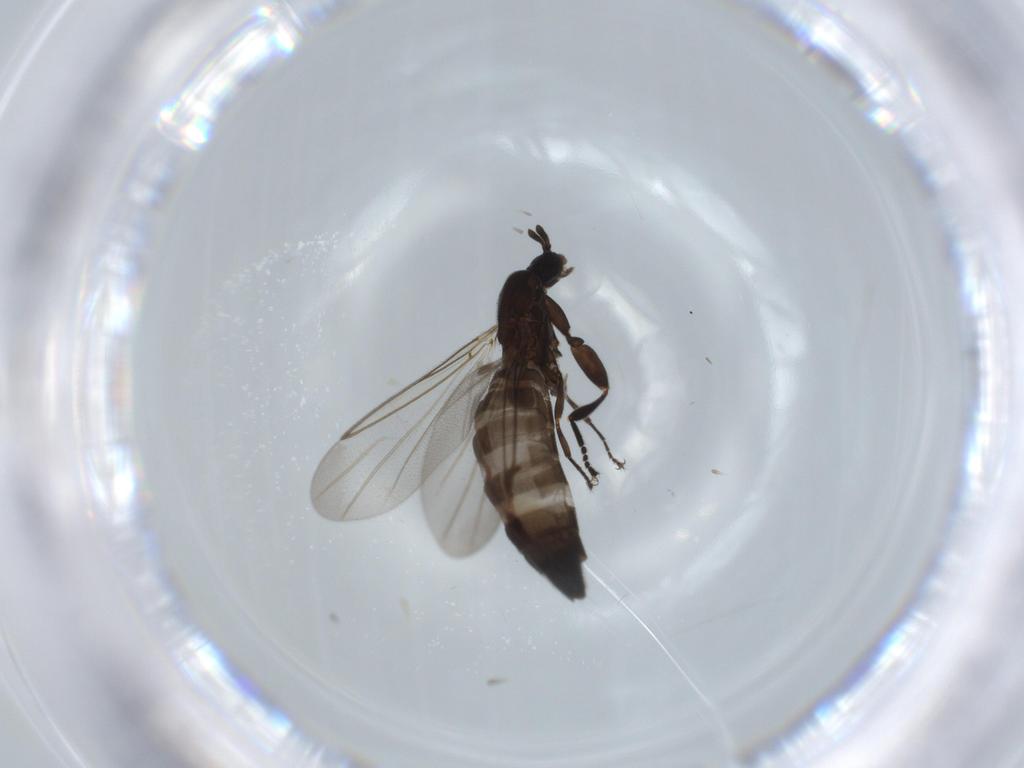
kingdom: Animalia
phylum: Arthropoda
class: Insecta
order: Diptera
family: Scatopsidae
